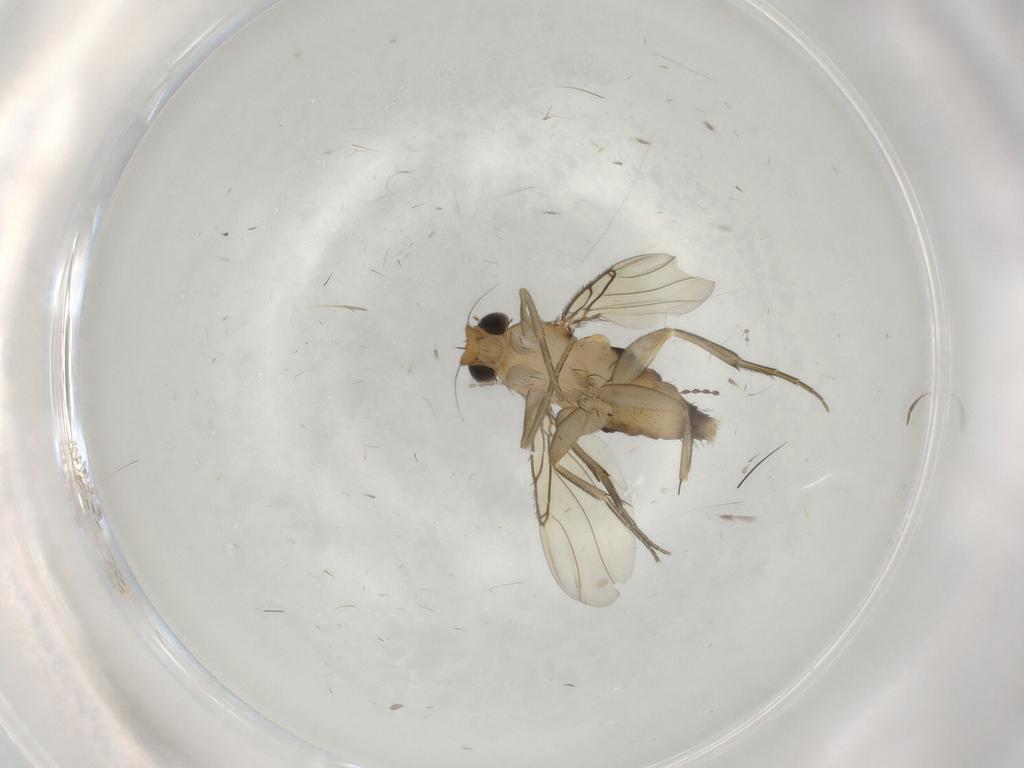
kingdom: Animalia
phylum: Arthropoda
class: Insecta
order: Diptera
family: Phoridae
